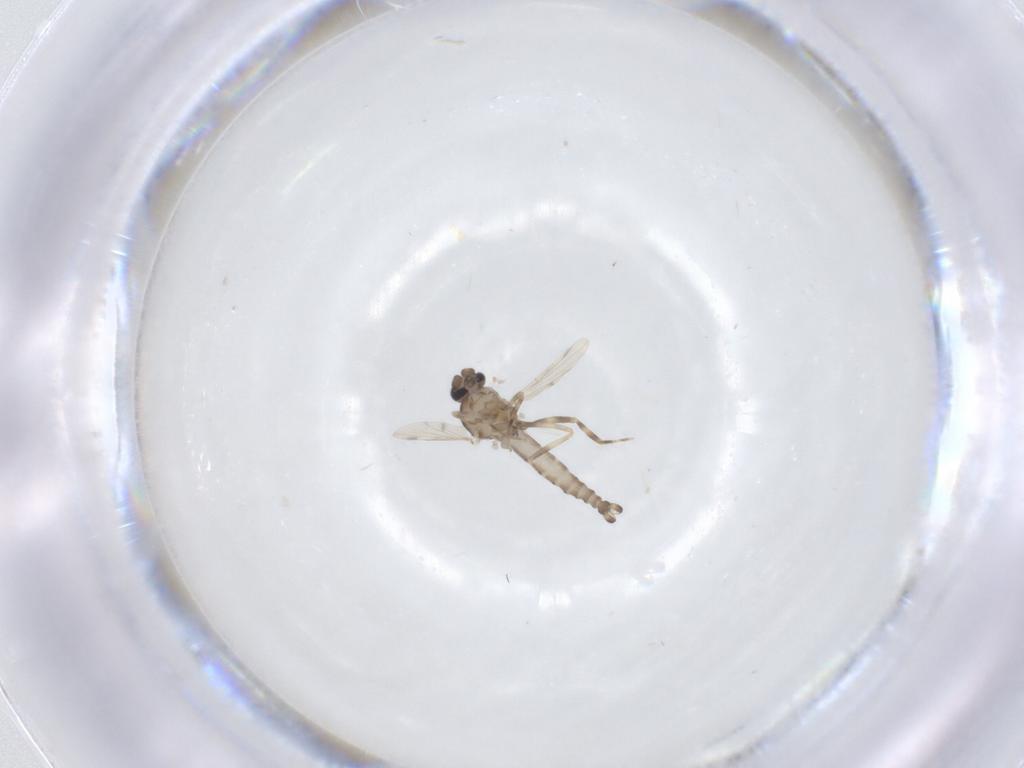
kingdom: Animalia
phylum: Arthropoda
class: Insecta
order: Diptera
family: Ceratopogonidae
